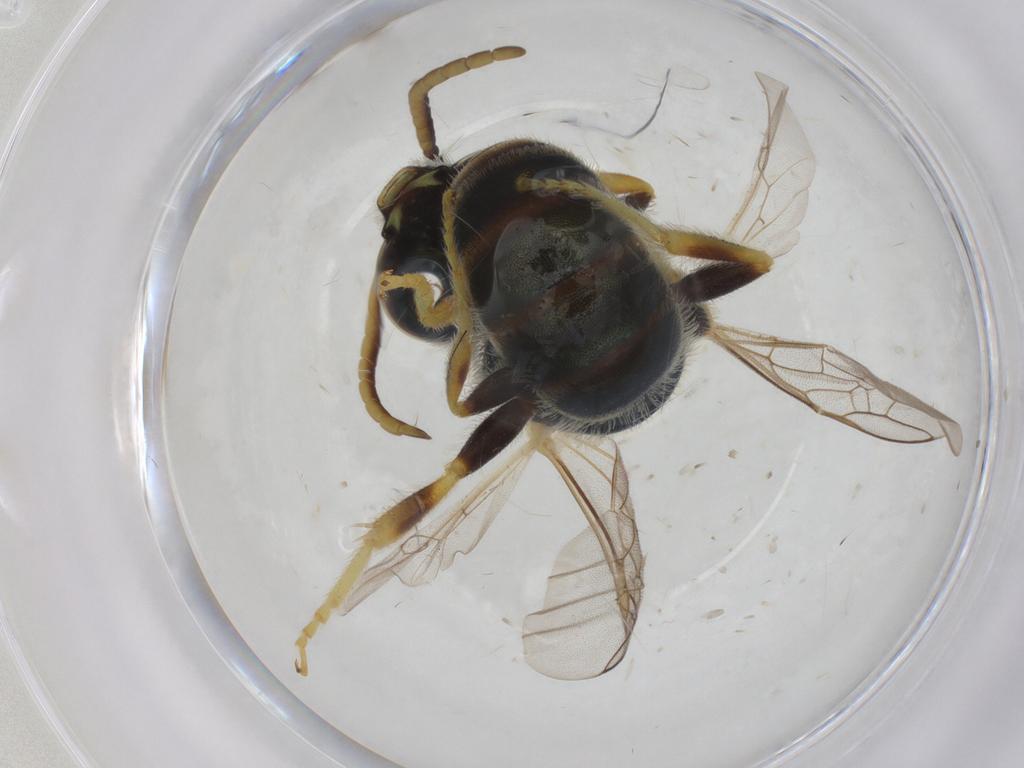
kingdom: Animalia
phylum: Arthropoda
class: Insecta
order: Hymenoptera
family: Halictidae
